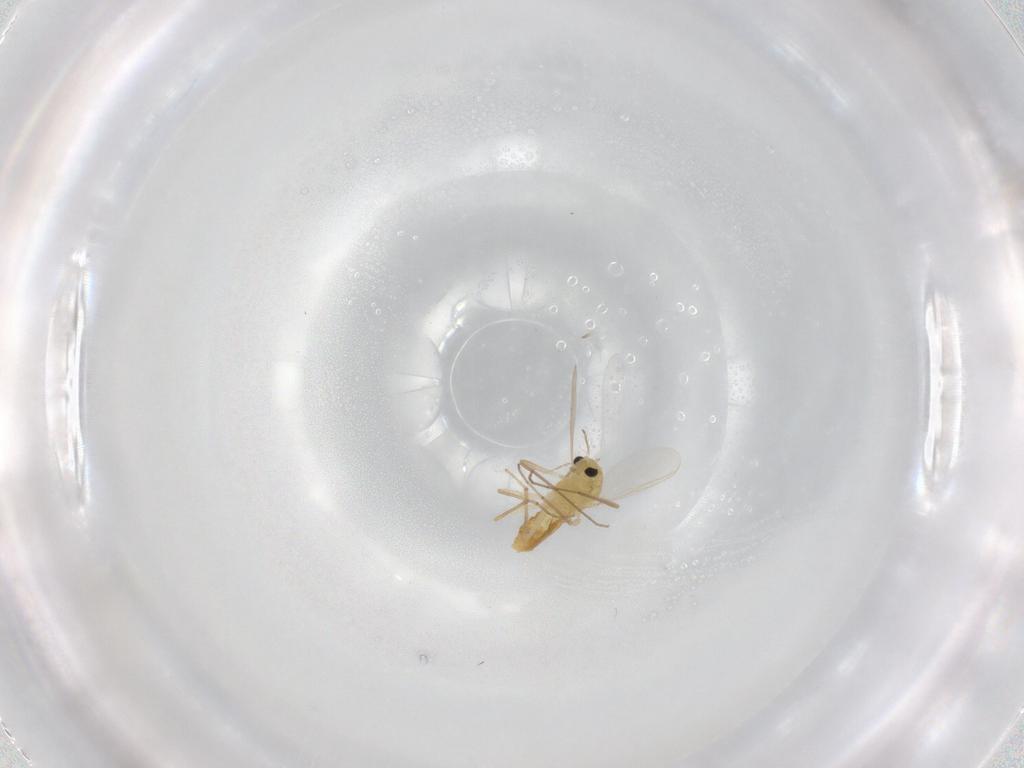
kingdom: Animalia
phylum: Arthropoda
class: Insecta
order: Diptera
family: Chironomidae
